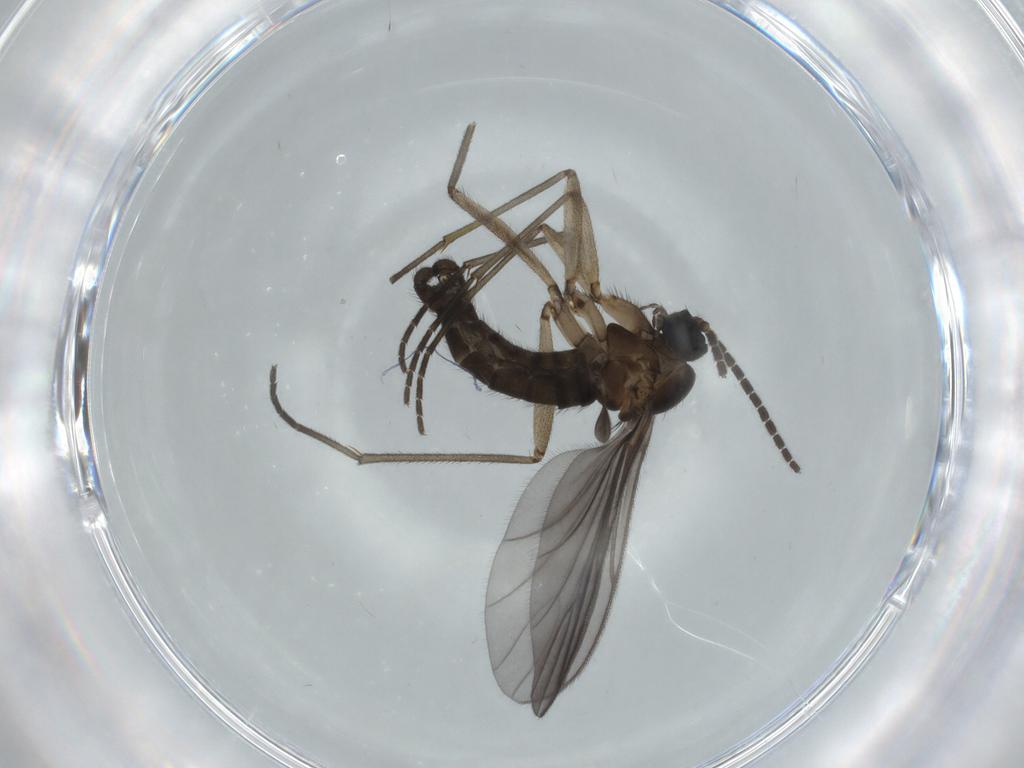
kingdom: Animalia
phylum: Arthropoda
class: Insecta
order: Diptera
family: Sciaridae
